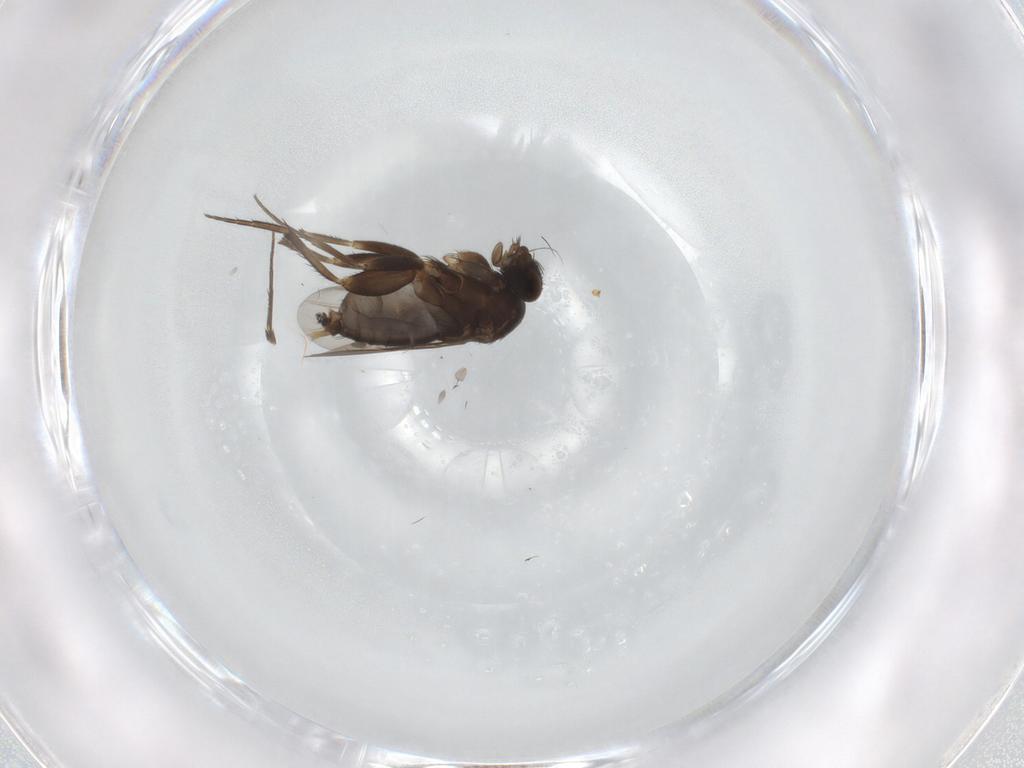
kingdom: Animalia
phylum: Arthropoda
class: Insecta
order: Diptera
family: Phoridae
